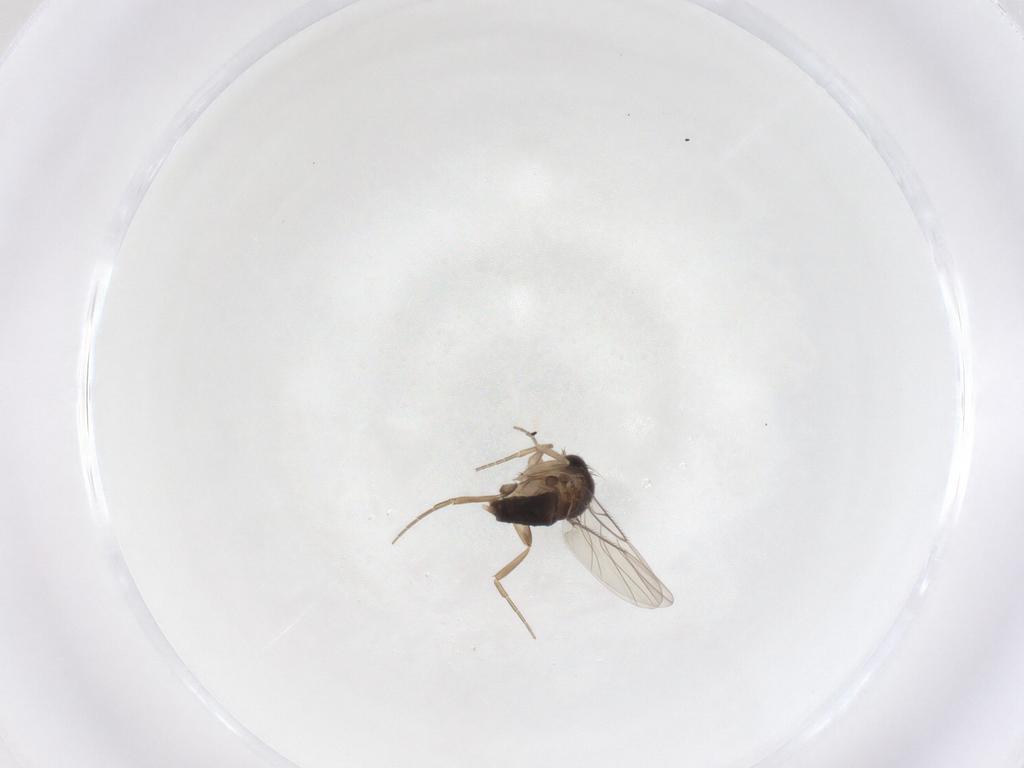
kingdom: Animalia
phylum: Arthropoda
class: Insecta
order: Diptera
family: Phoridae
